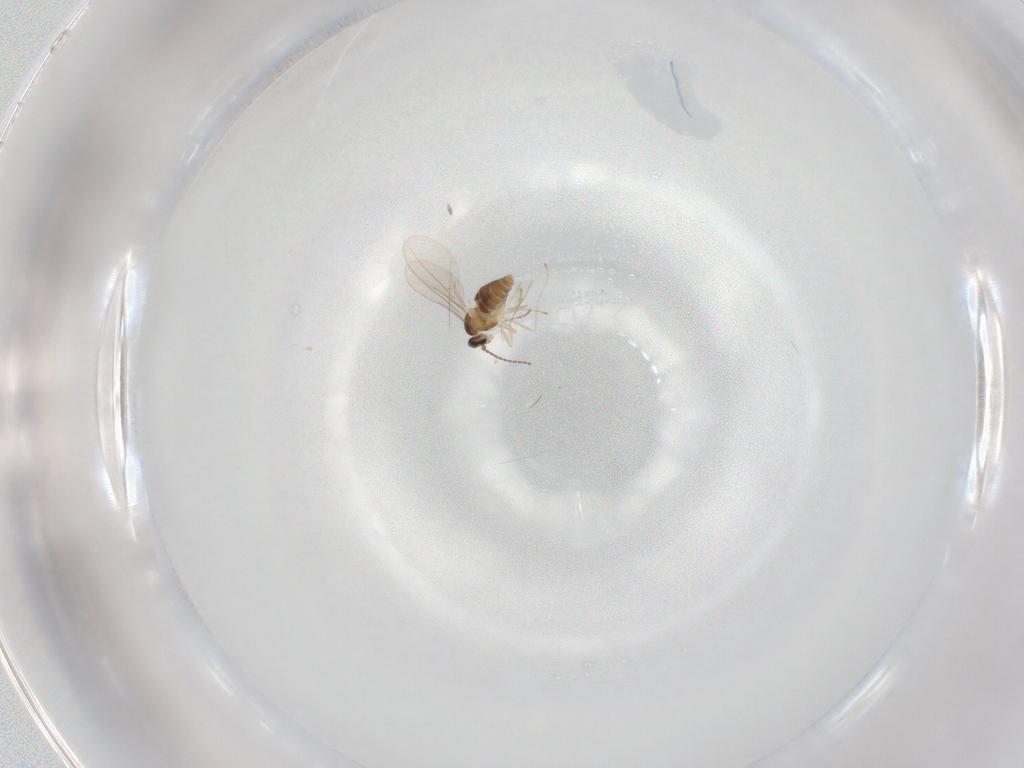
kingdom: Animalia
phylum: Arthropoda
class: Insecta
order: Diptera
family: Cecidomyiidae
